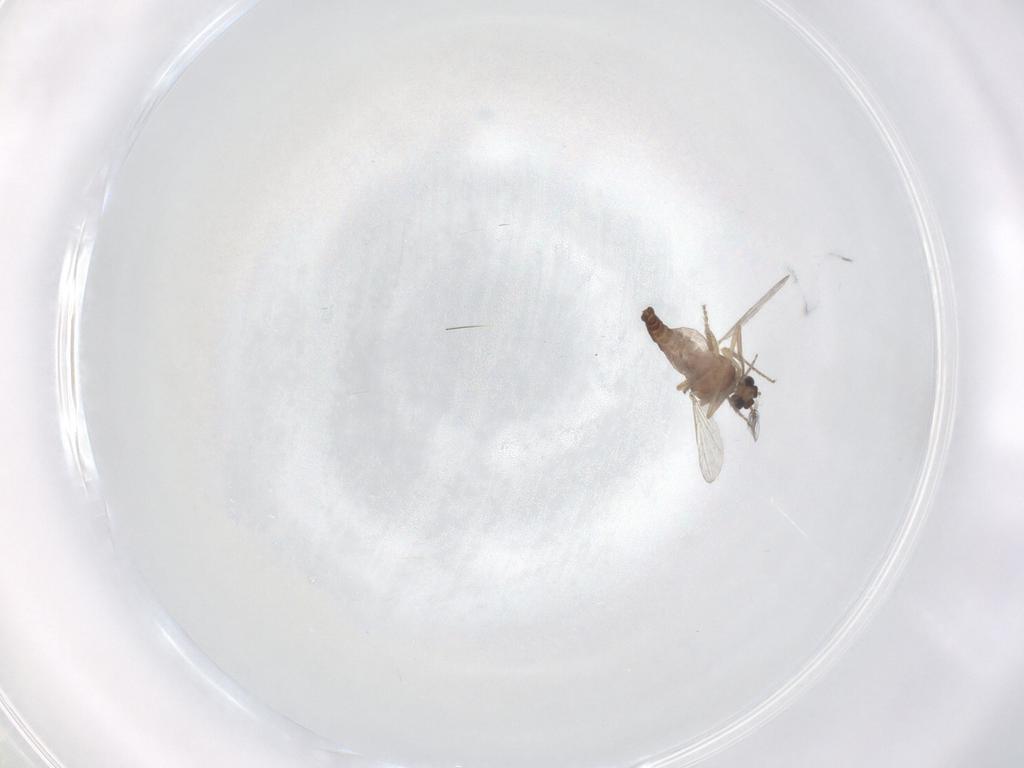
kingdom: Animalia
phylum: Arthropoda
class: Insecta
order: Diptera
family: Ceratopogonidae
